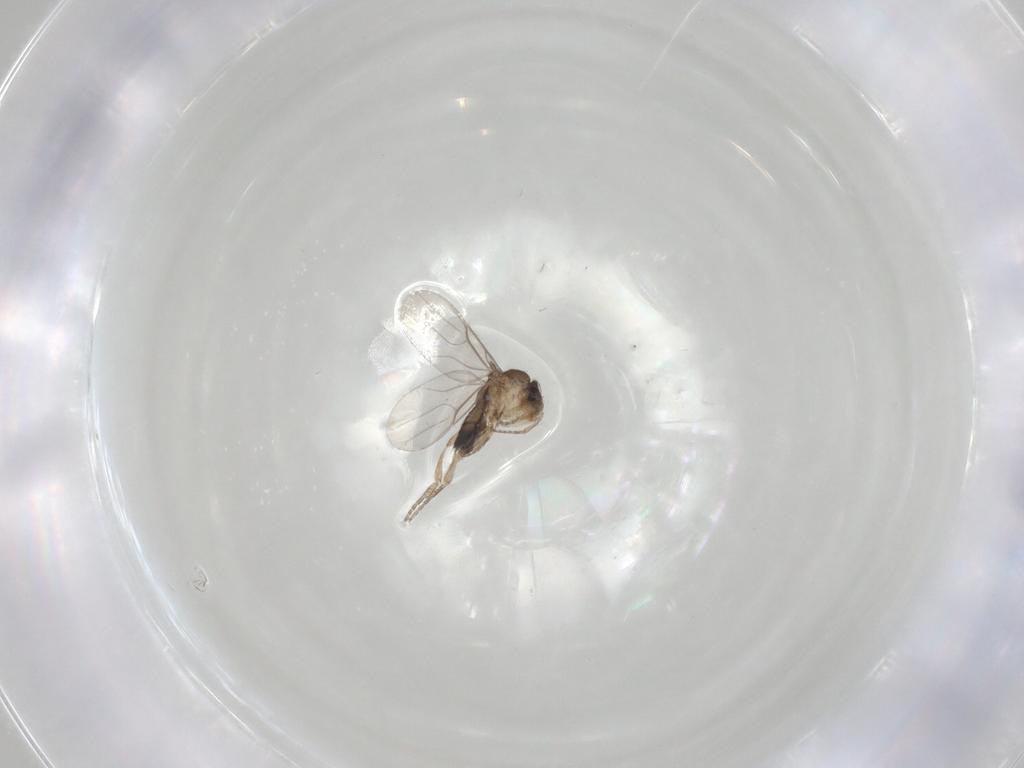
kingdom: Animalia
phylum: Arthropoda
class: Insecta
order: Diptera
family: Phoridae
